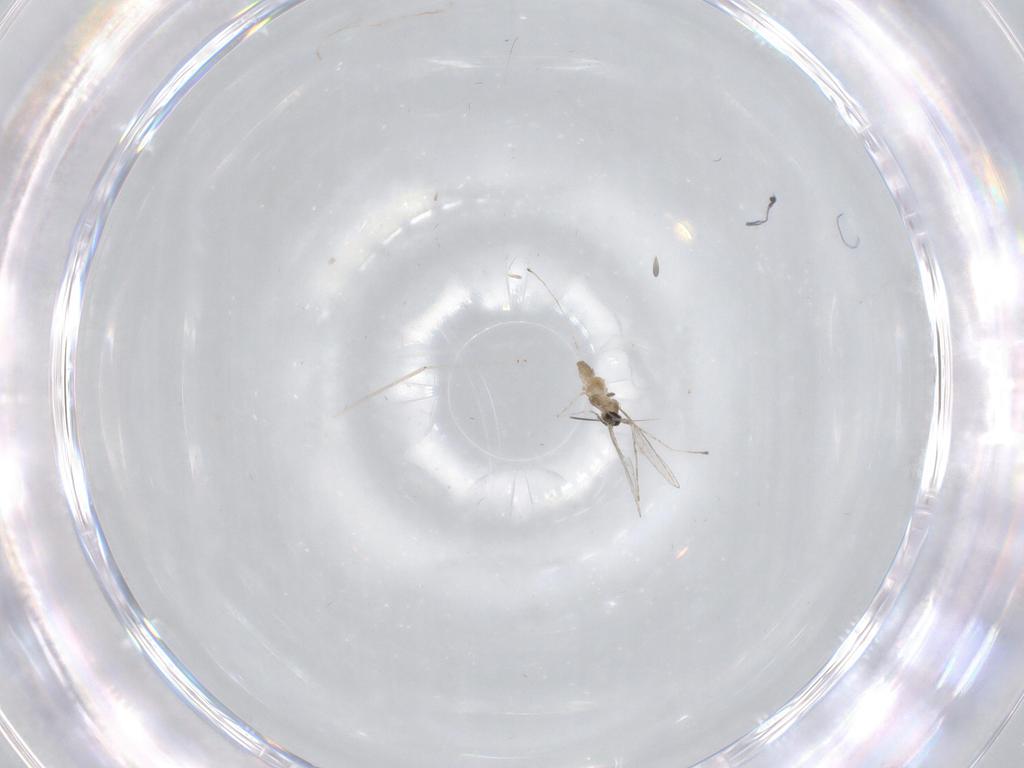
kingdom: Animalia
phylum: Arthropoda
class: Insecta
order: Diptera
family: Cecidomyiidae
